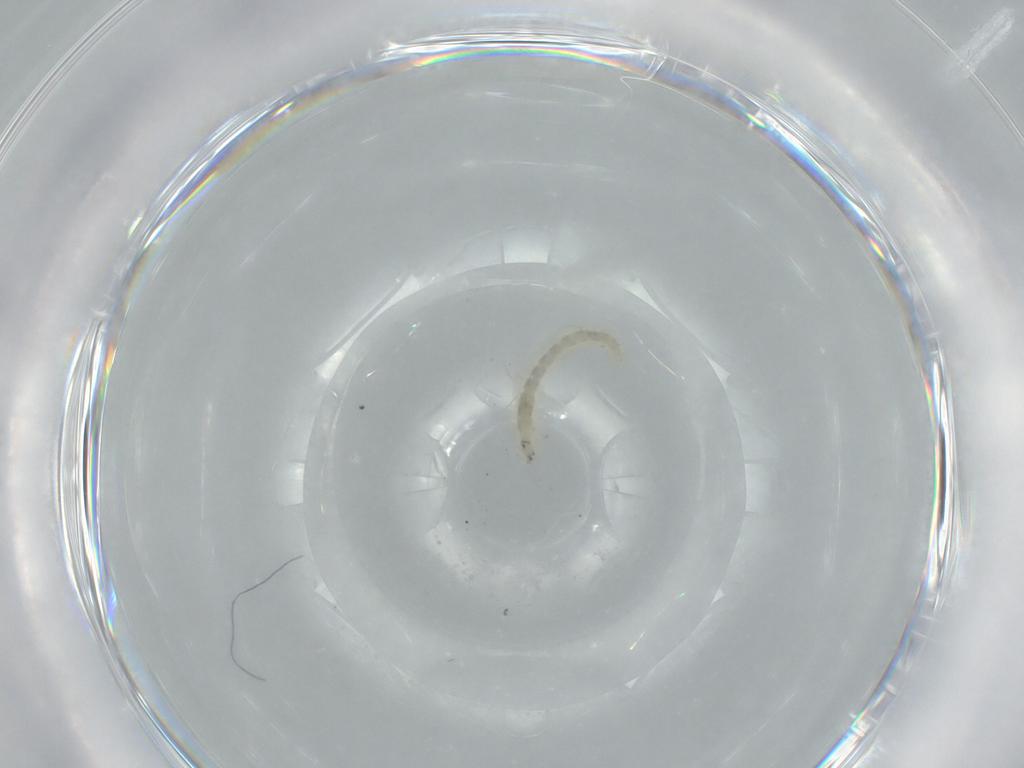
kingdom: Animalia
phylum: Arthropoda
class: Insecta
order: Diptera
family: Chironomidae
